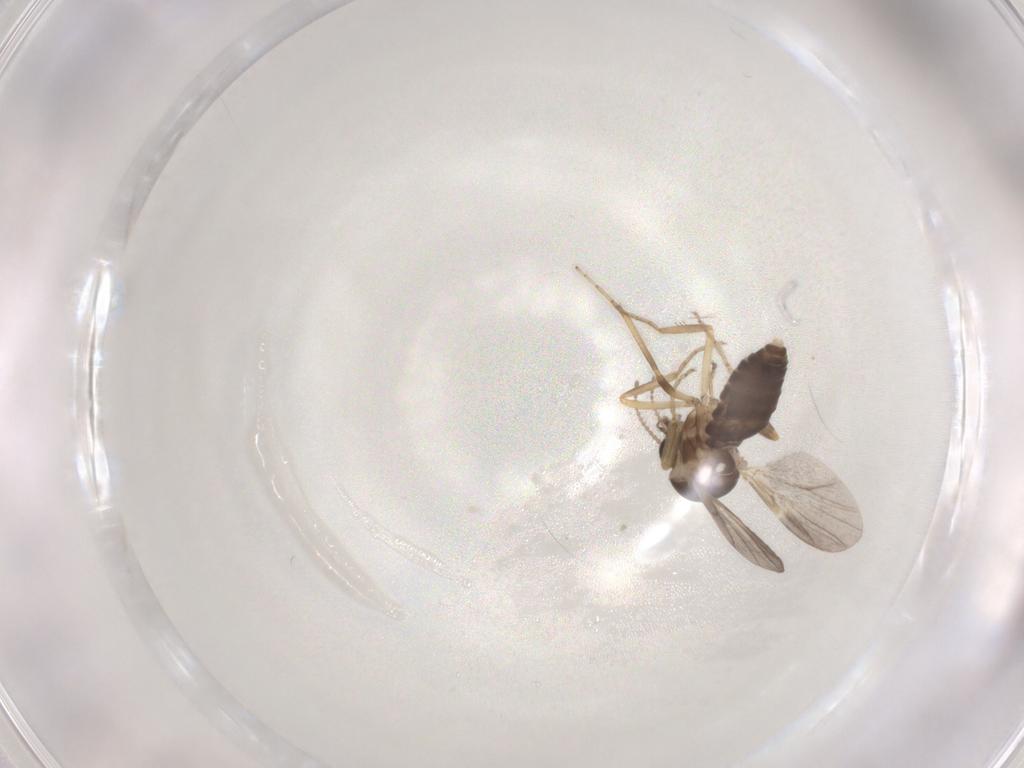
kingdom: Animalia
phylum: Arthropoda
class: Insecta
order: Diptera
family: Ceratopogonidae
